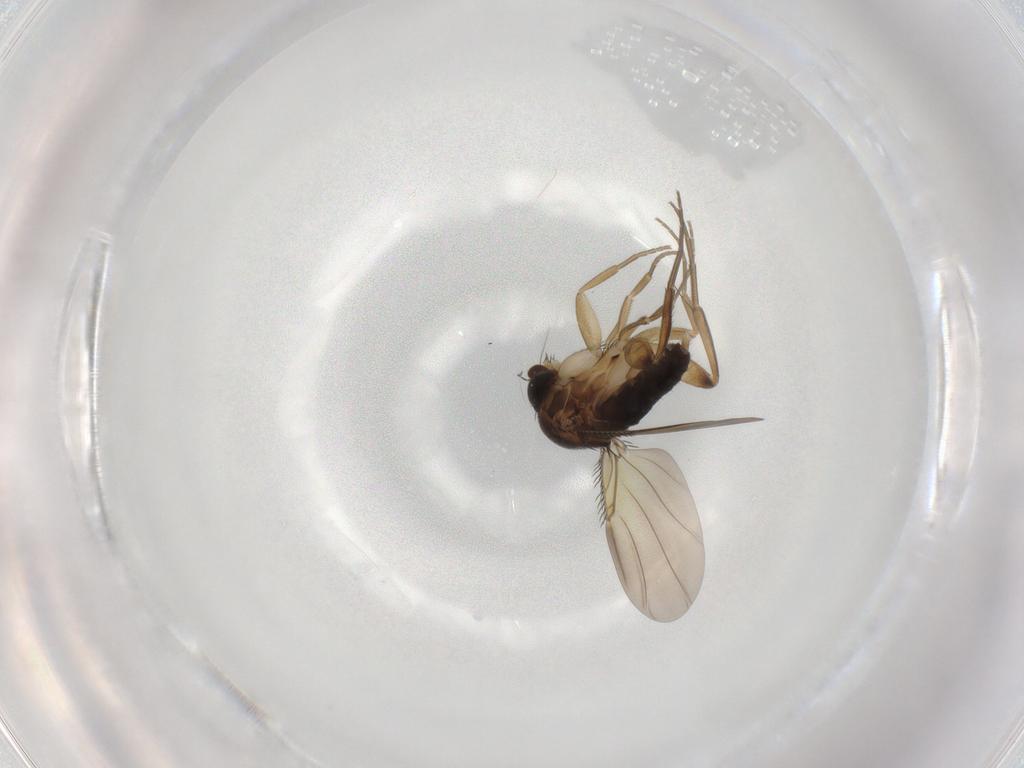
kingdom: Animalia
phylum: Arthropoda
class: Insecta
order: Diptera
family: Phoridae
